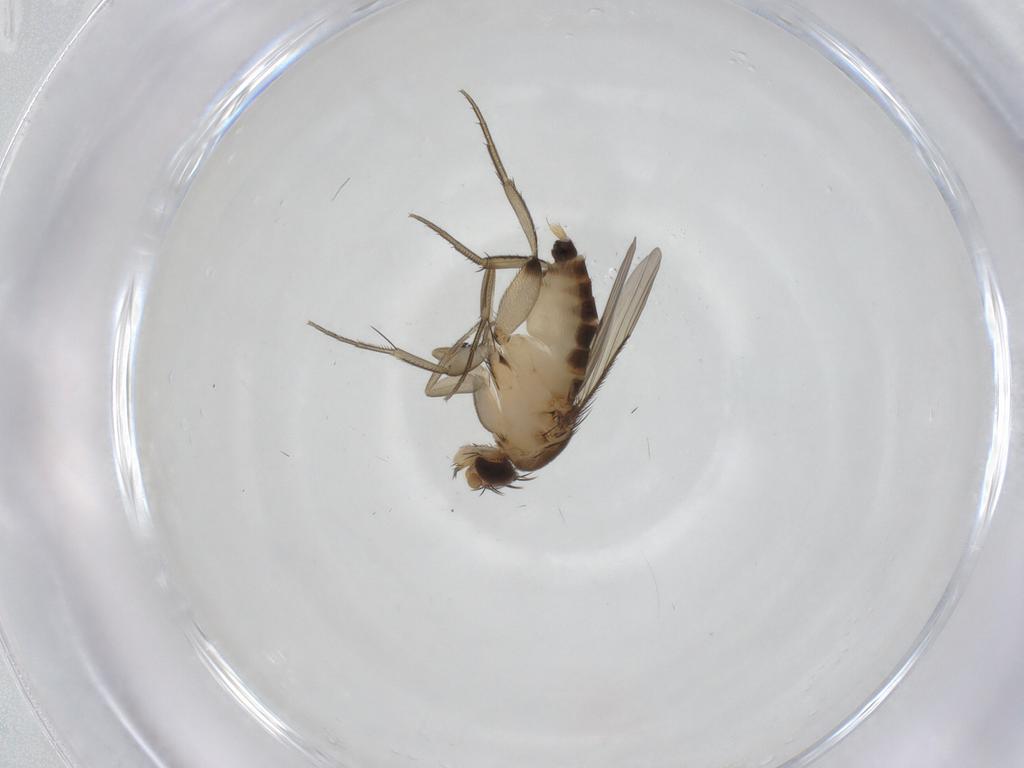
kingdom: Animalia
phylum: Arthropoda
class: Insecta
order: Diptera
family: Phoridae
